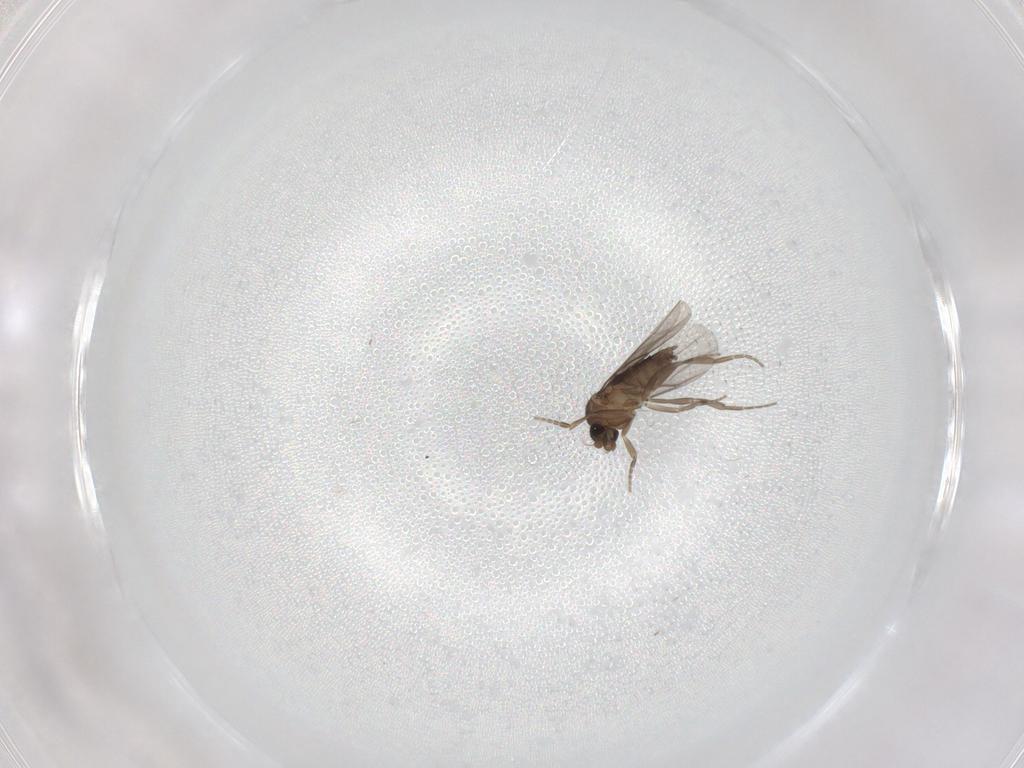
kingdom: Animalia
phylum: Arthropoda
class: Insecta
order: Diptera
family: Phoridae
